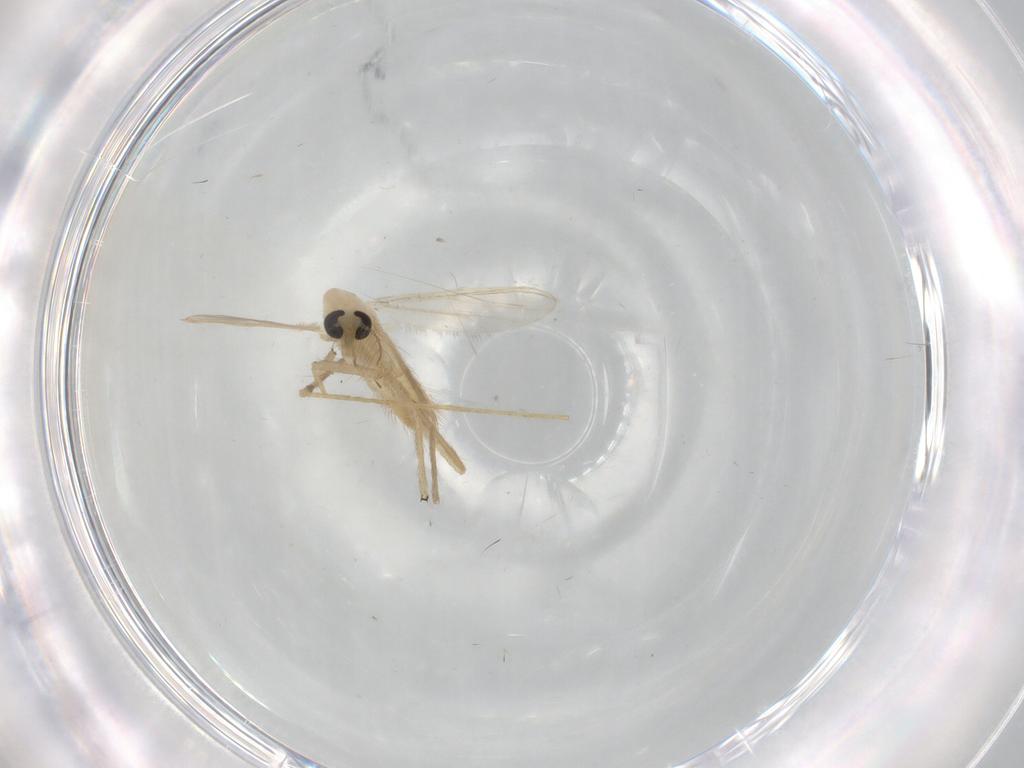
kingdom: Animalia
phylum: Arthropoda
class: Insecta
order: Diptera
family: Limoniidae
